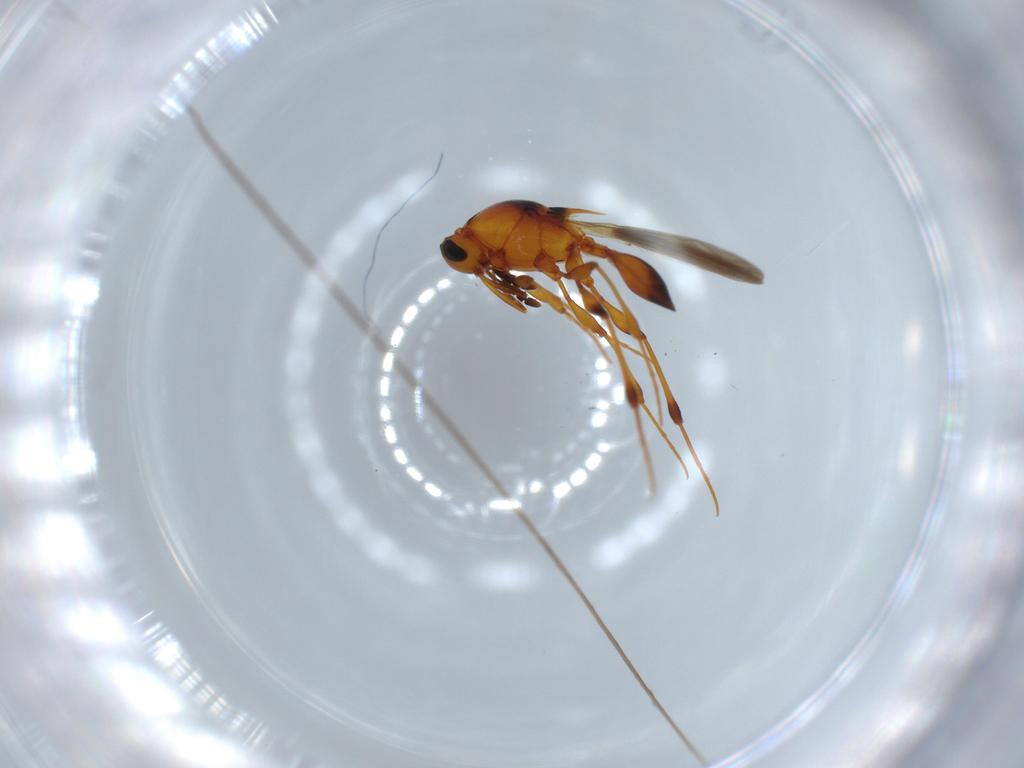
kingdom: Animalia
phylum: Arthropoda
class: Insecta
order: Hymenoptera
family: Platygastridae
